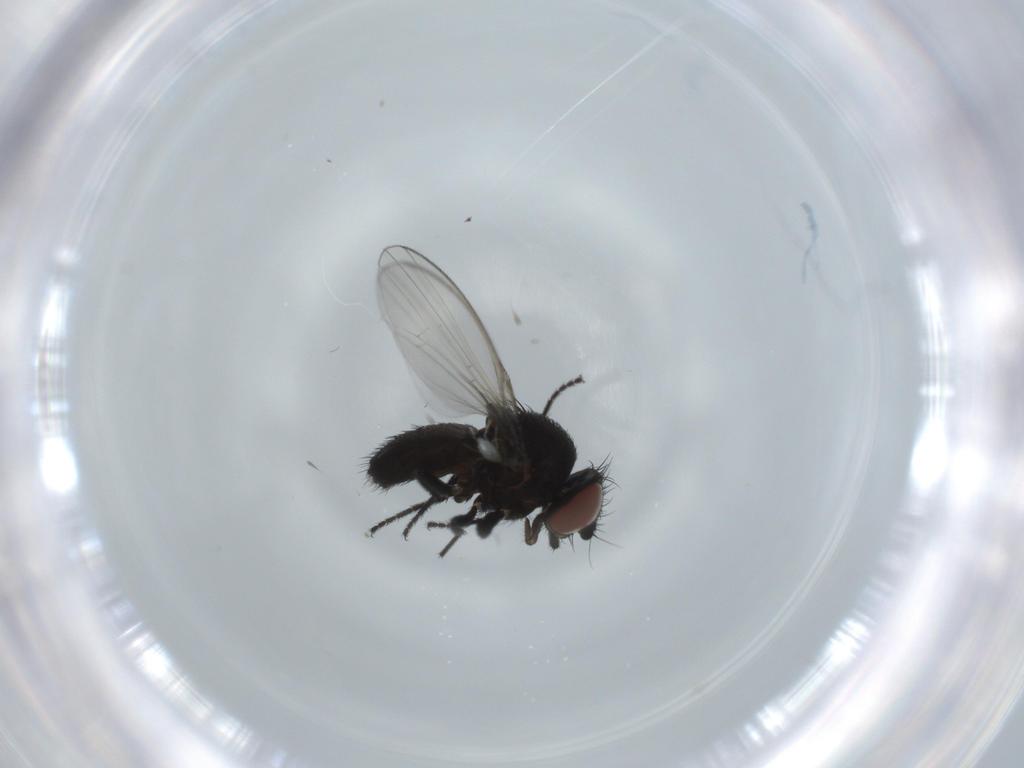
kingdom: Animalia
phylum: Arthropoda
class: Insecta
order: Diptera
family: Milichiidae
